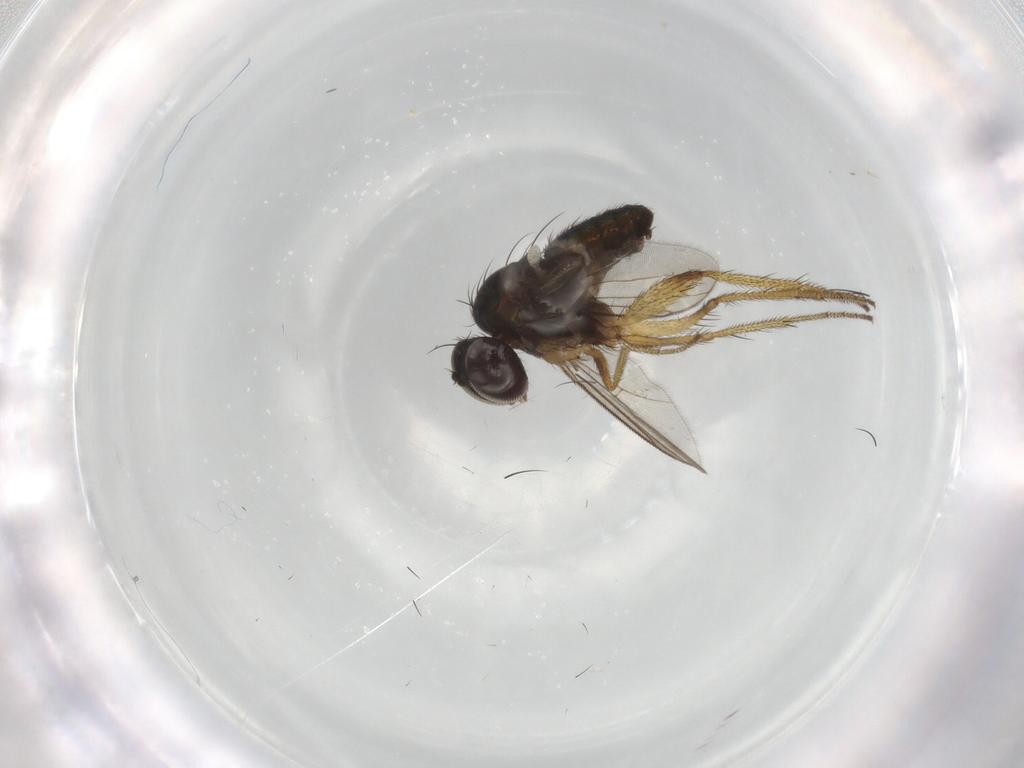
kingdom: Animalia
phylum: Arthropoda
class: Insecta
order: Diptera
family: Dolichopodidae
